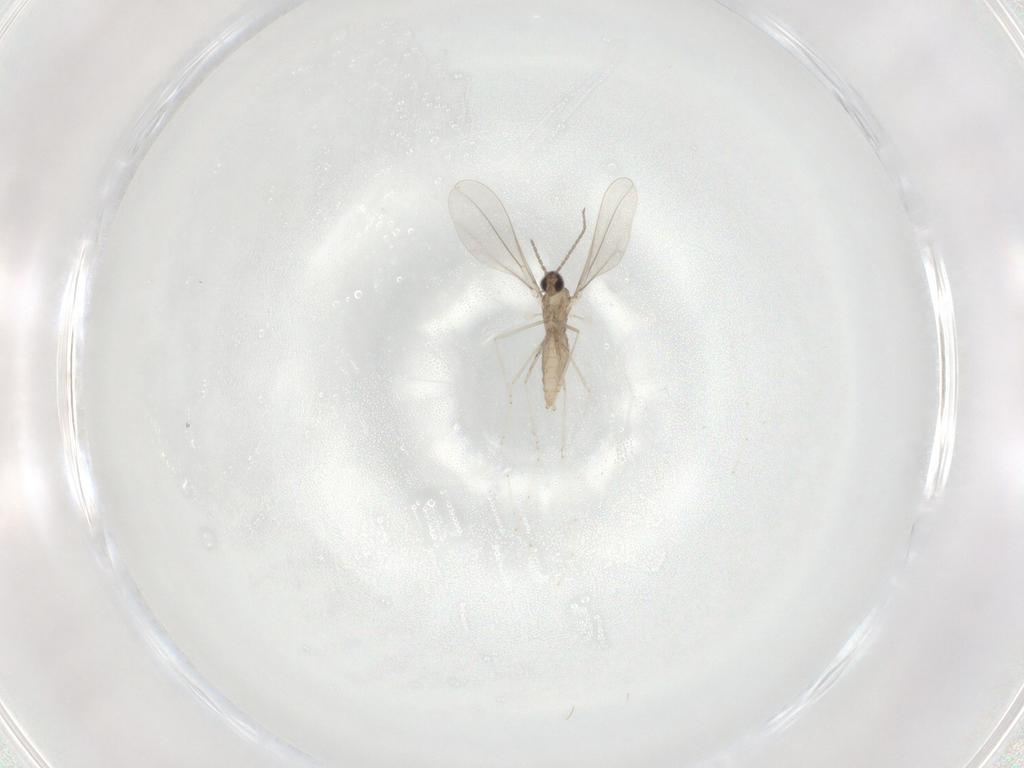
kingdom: Animalia
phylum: Arthropoda
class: Insecta
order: Diptera
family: Cecidomyiidae
